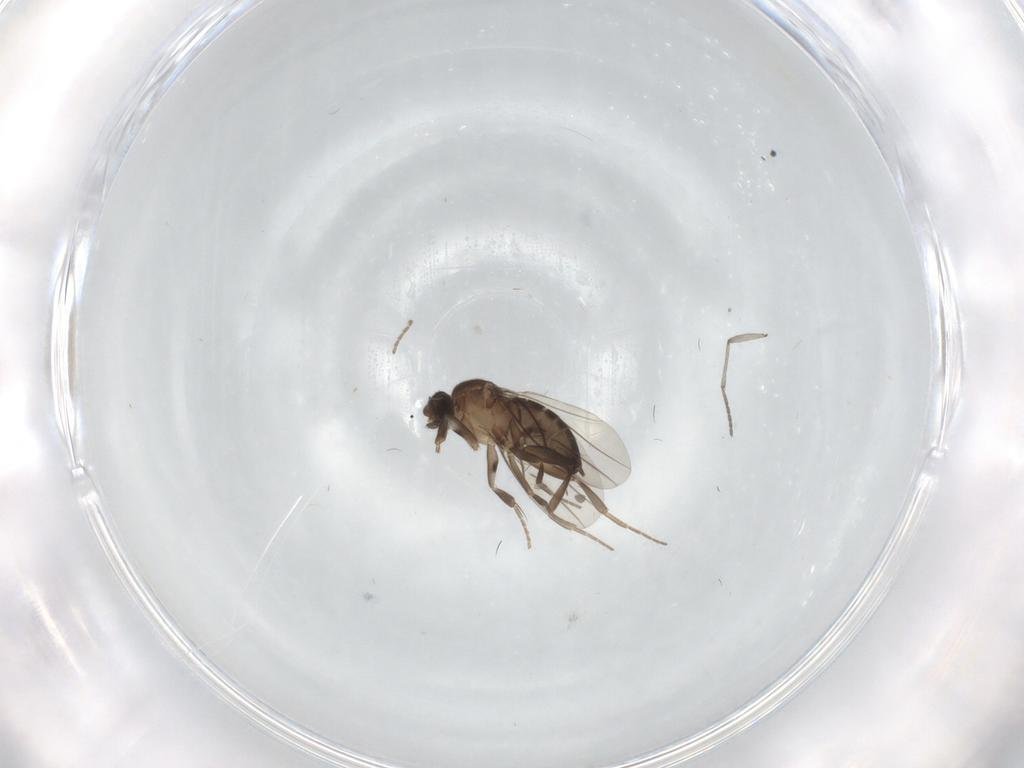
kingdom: Animalia
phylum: Arthropoda
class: Insecta
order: Diptera
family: Phoridae
